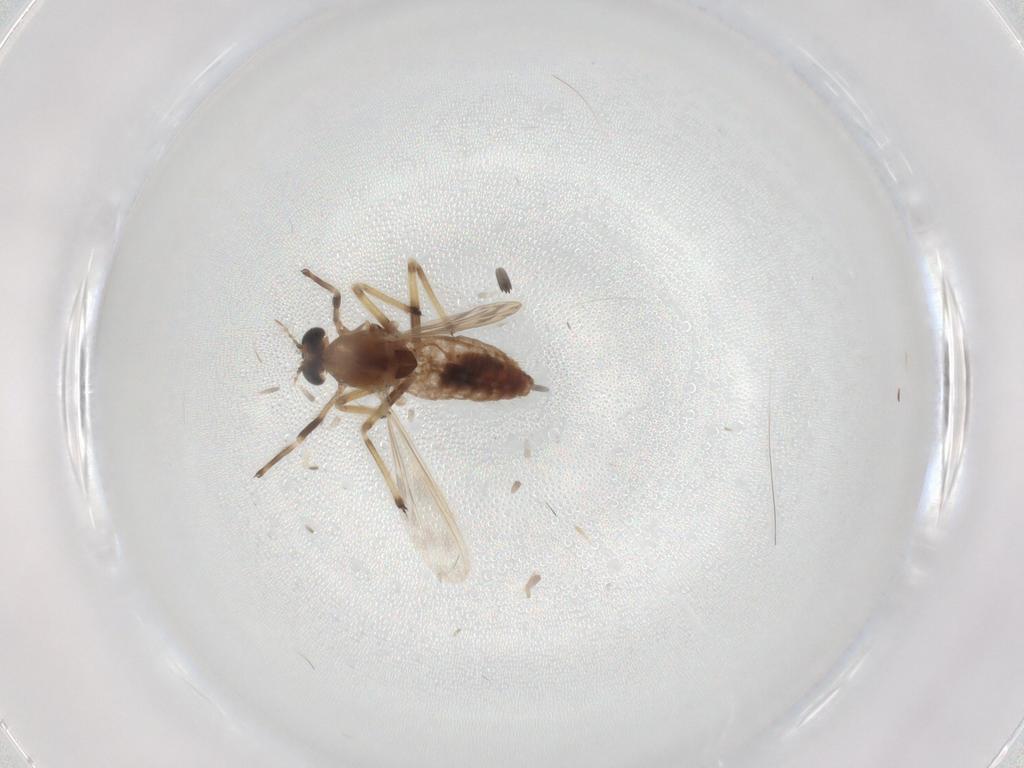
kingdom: Animalia
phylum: Arthropoda
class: Insecta
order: Diptera
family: Chironomidae
